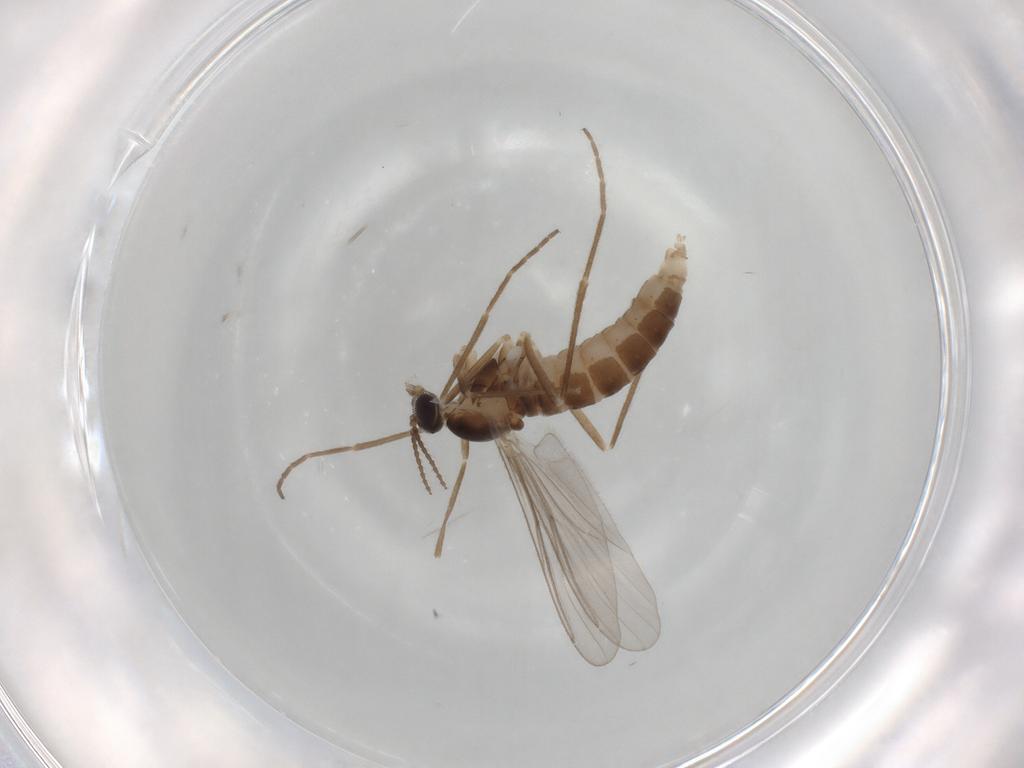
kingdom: Animalia
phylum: Arthropoda
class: Insecta
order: Diptera
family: Cecidomyiidae
